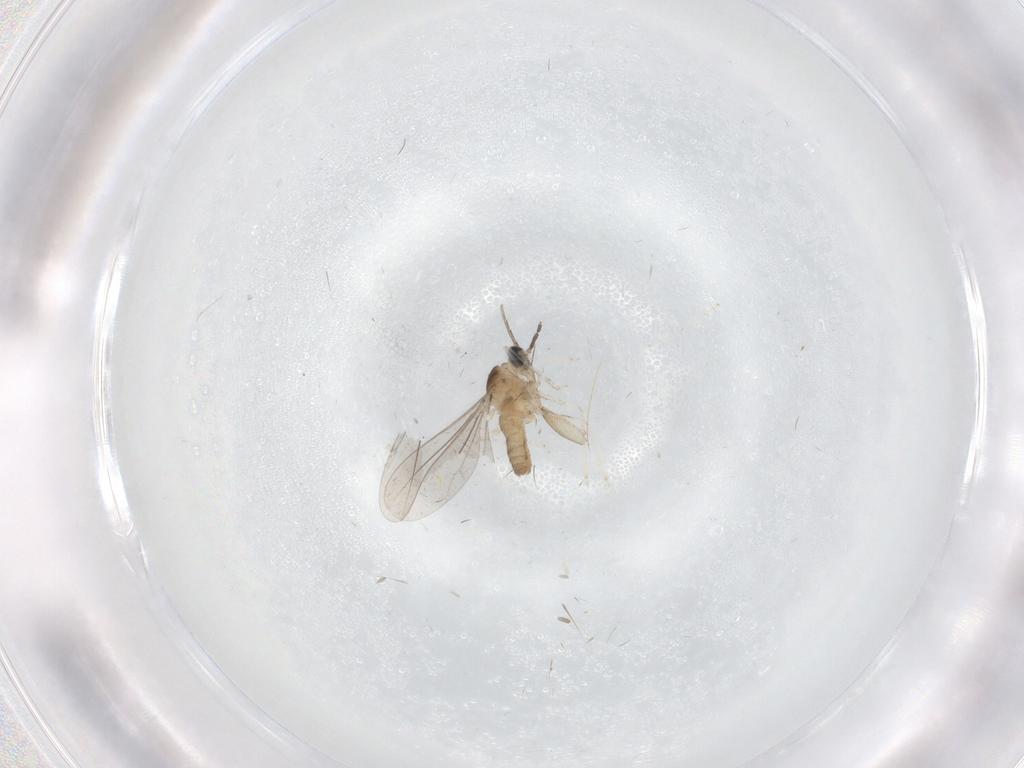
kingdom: Animalia
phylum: Arthropoda
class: Insecta
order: Diptera
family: Cecidomyiidae
